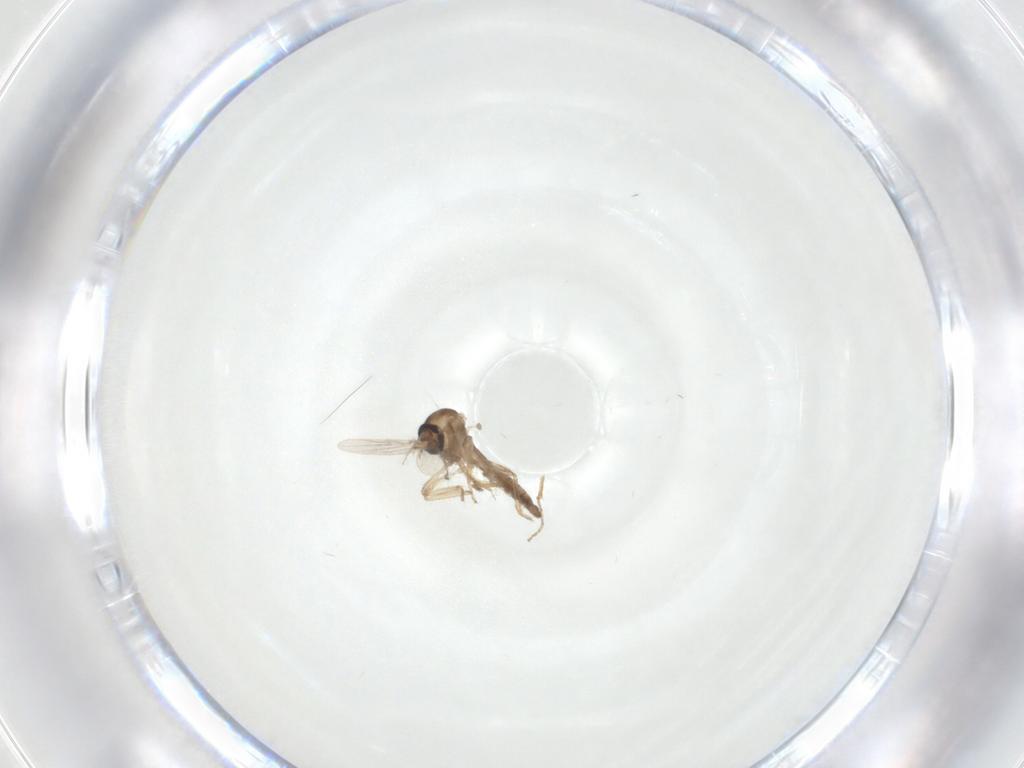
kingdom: Animalia
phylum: Arthropoda
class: Insecta
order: Diptera
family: Ceratopogonidae
